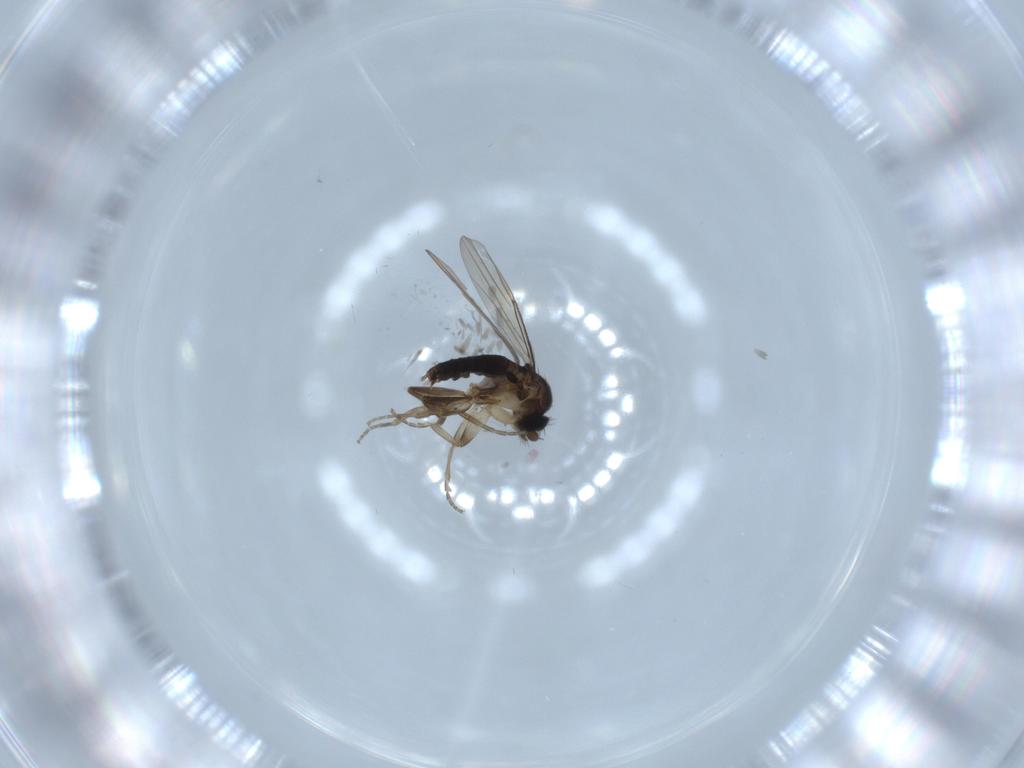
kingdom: Animalia
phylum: Arthropoda
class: Insecta
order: Diptera
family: Phoridae
